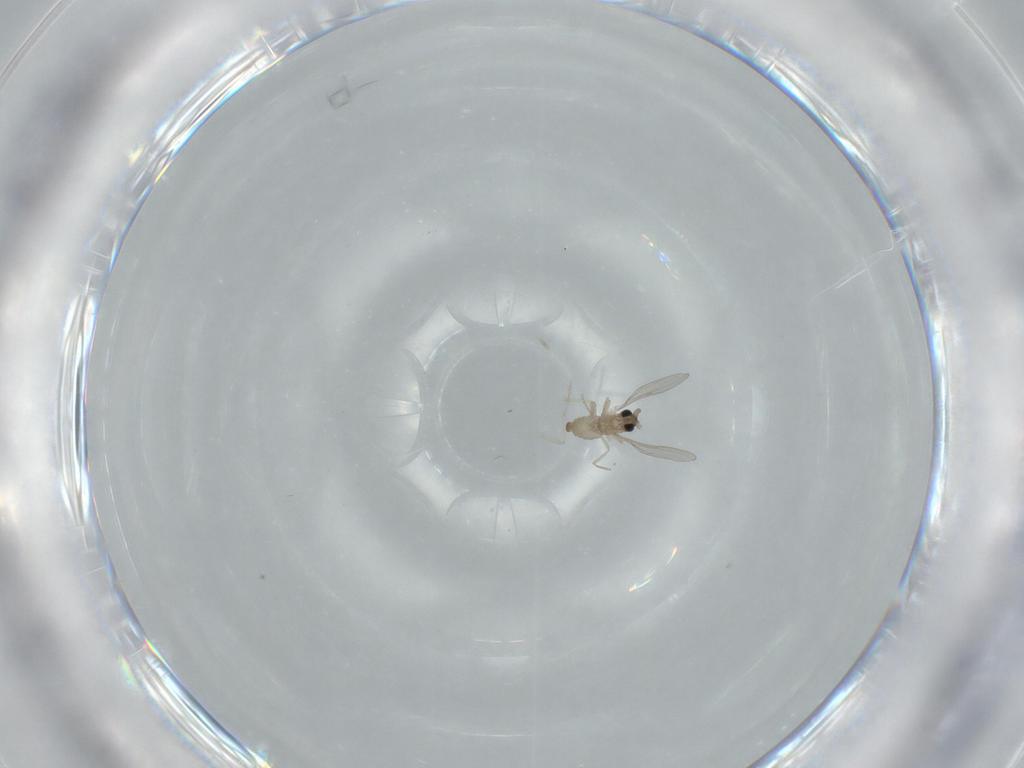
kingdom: Animalia
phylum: Arthropoda
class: Insecta
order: Diptera
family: Cecidomyiidae
